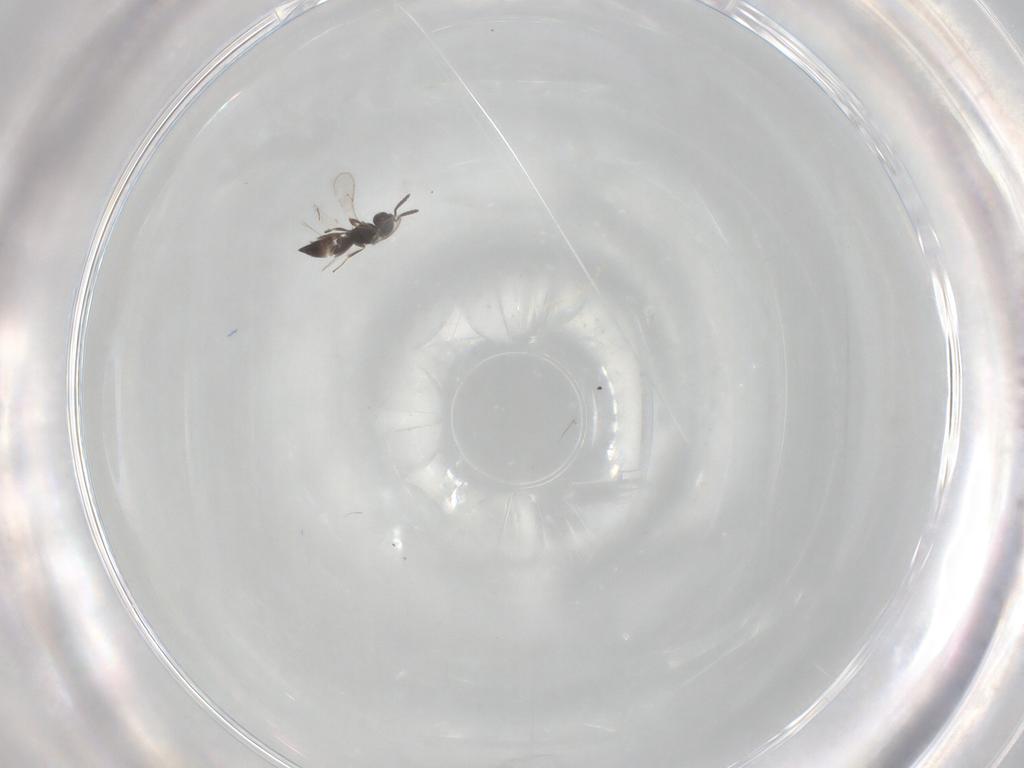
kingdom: Animalia
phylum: Arthropoda
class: Insecta
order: Hymenoptera
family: Scelionidae
